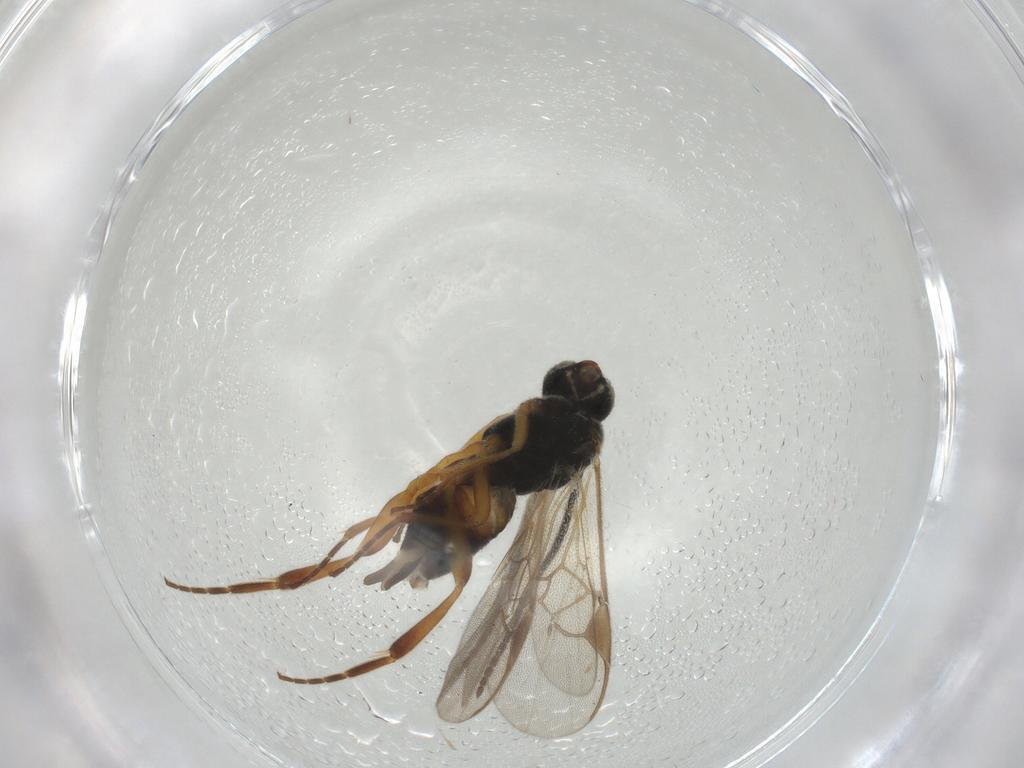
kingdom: Animalia
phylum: Arthropoda
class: Insecta
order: Hymenoptera
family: Braconidae
